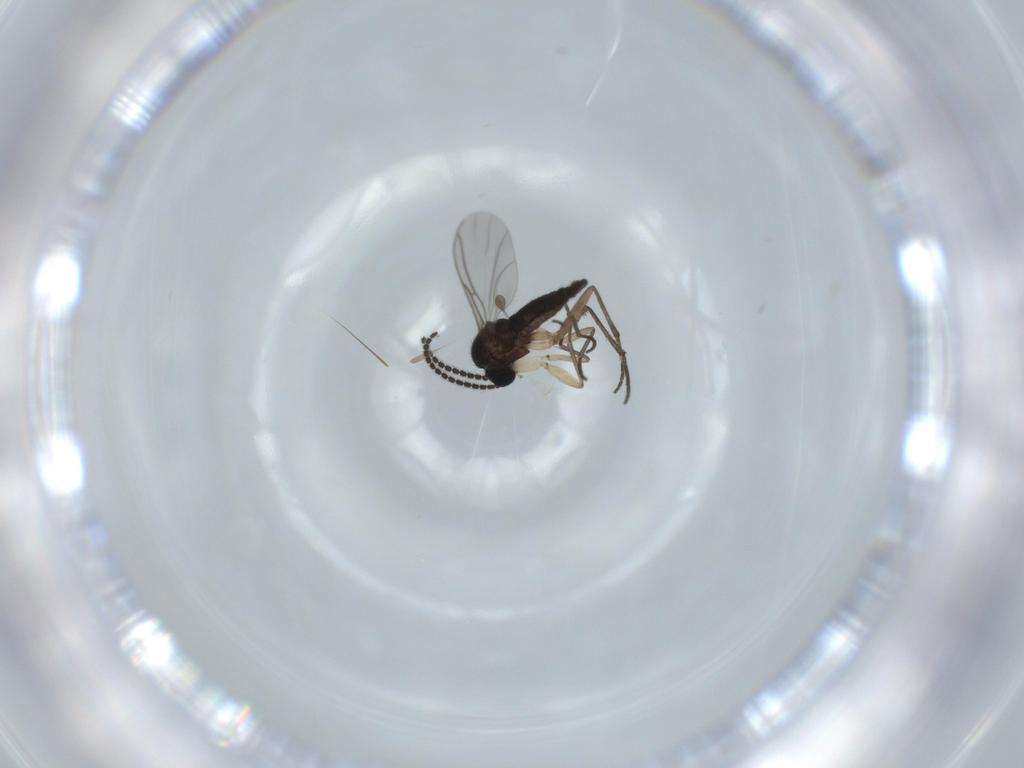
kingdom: Animalia
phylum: Arthropoda
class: Insecta
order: Diptera
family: Sciaridae
